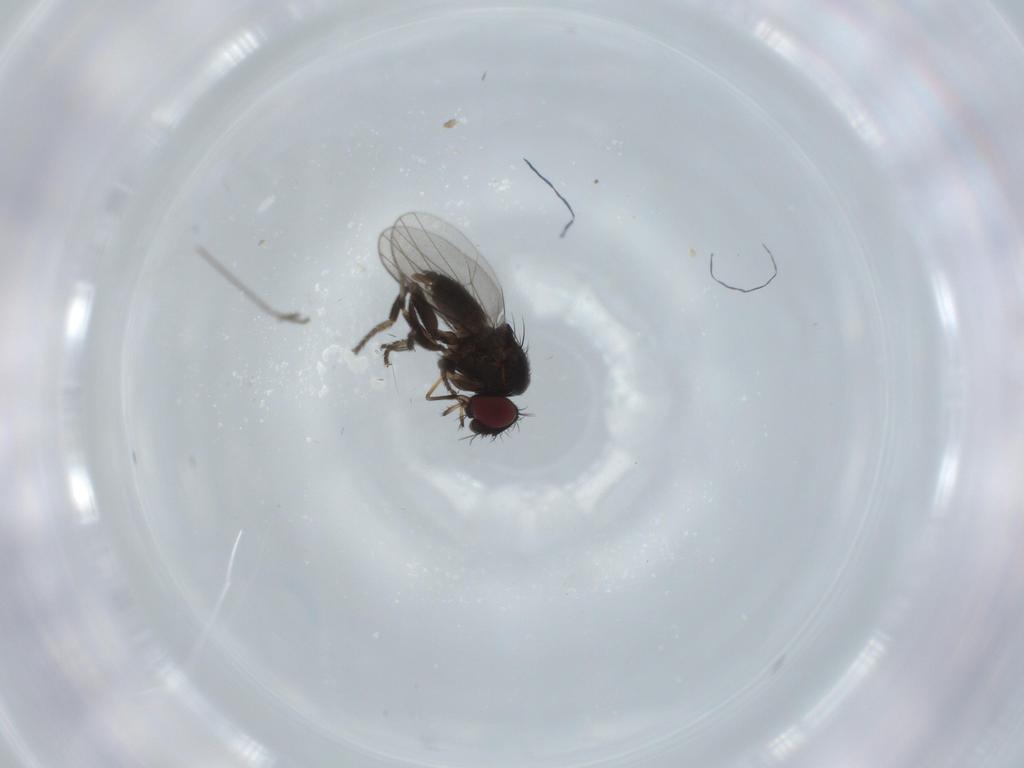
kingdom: Animalia
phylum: Arthropoda
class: Insecta
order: Diptera
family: Milichiidae
